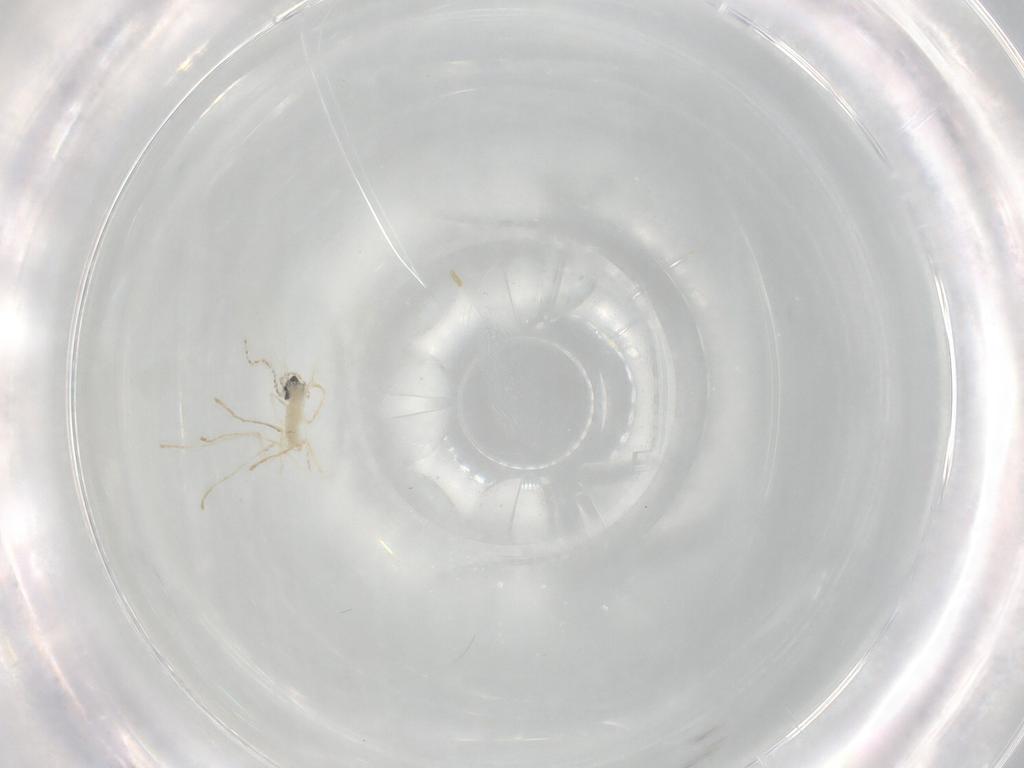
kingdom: Animalia
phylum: Arthropoda
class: Insecta
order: Diptera
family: Cecidomyiidae
